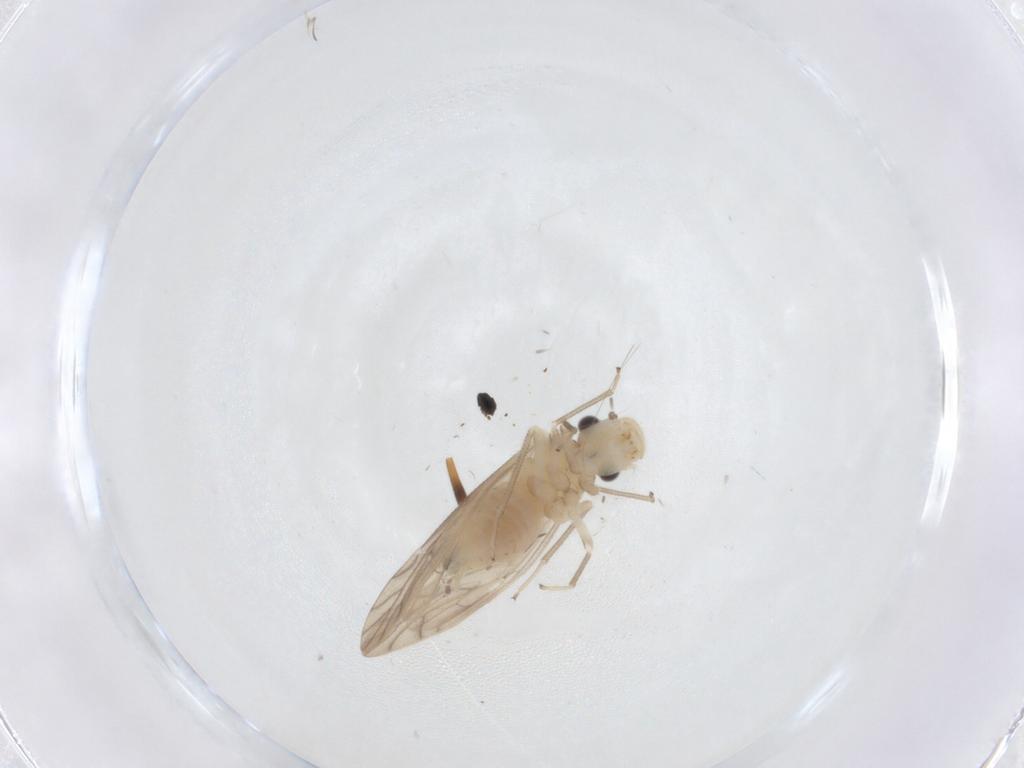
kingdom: Animalia
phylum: Arthropoda
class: Insecta
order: Psocodea
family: Caeciliusidae
